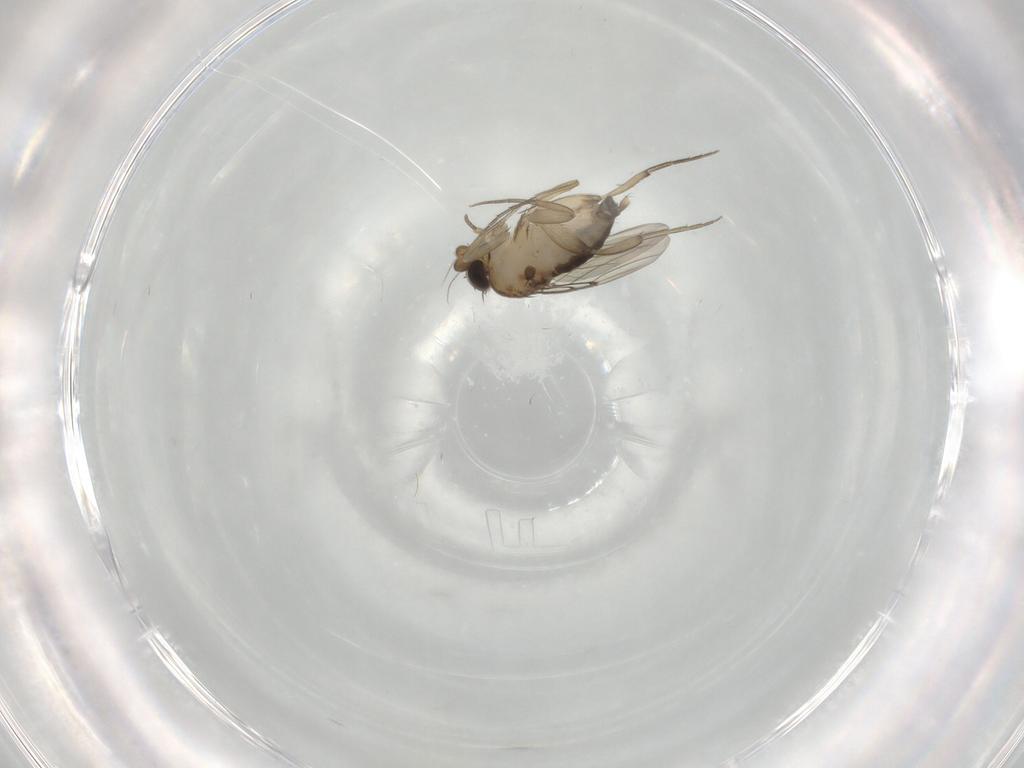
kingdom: Animalia
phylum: Arthropoda
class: Insecta
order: Diptera
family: Phoridae
